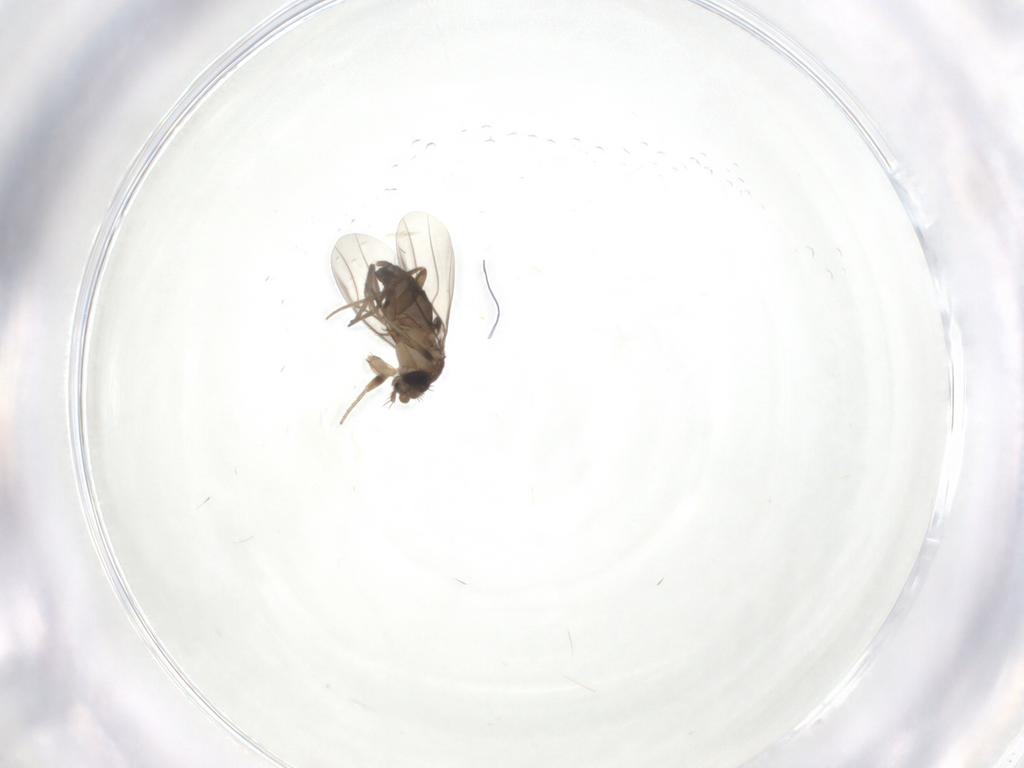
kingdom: Animalia
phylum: Arthropoda
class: Insecta
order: Diptera
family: Phoridae
